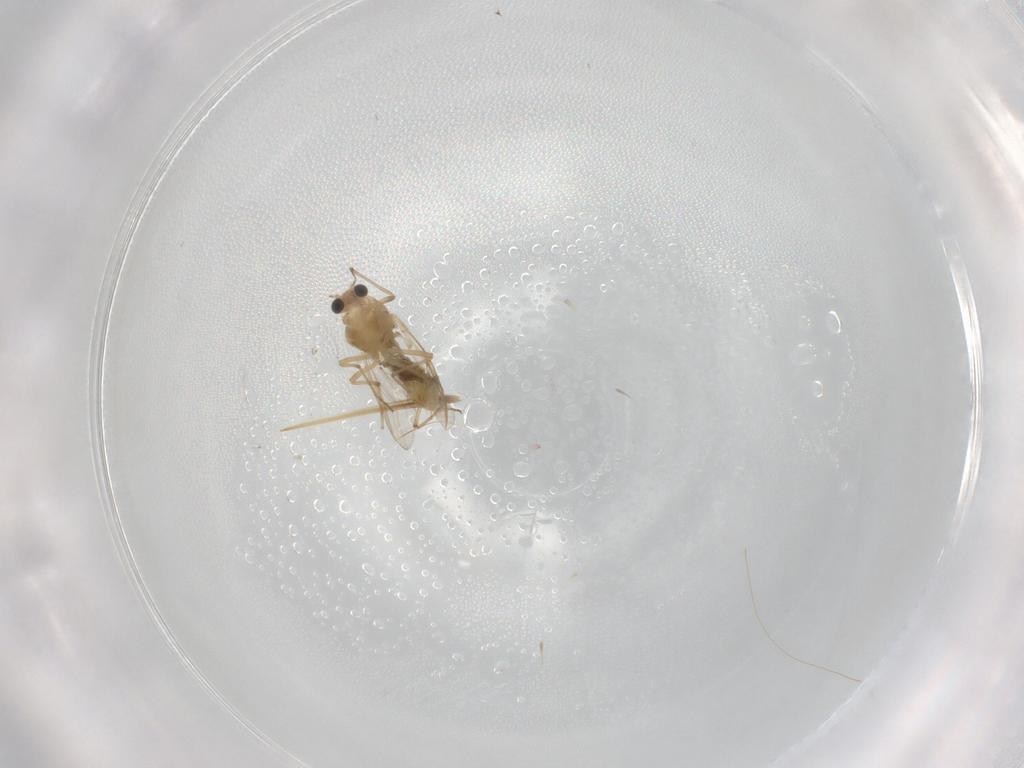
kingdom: Animalia
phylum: Arthropoda
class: Insecta
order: Diptera
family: Chironomidae
